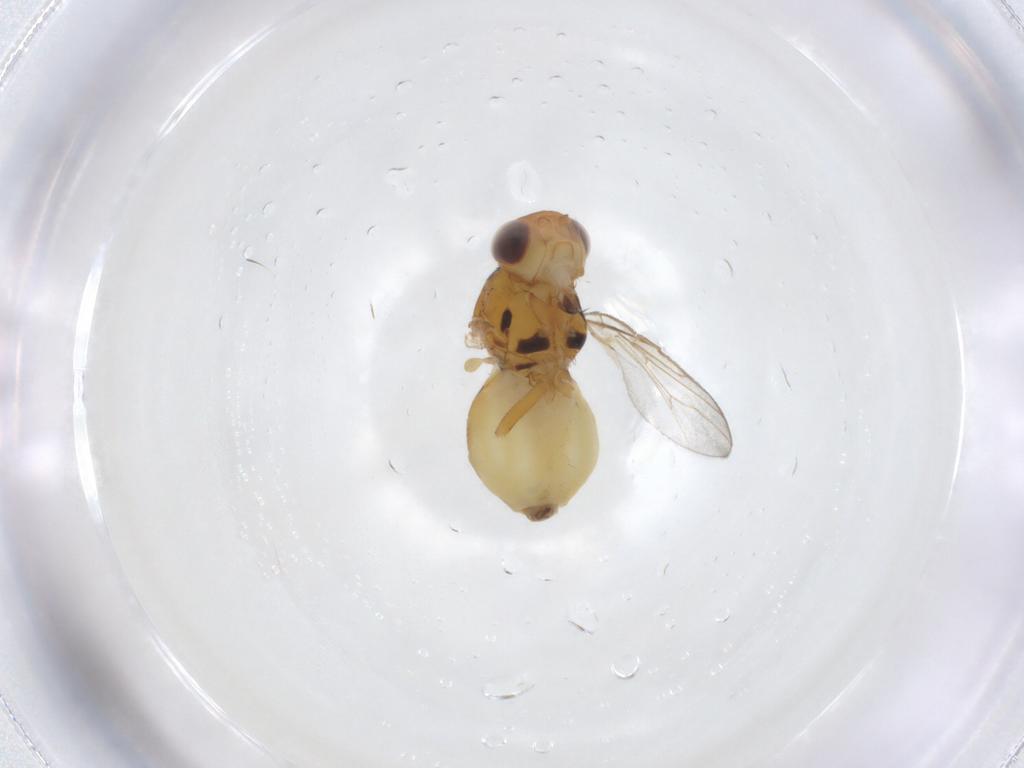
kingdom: Animalia
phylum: Arthropoda
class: Insecta
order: Diptera
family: Chloropidae
